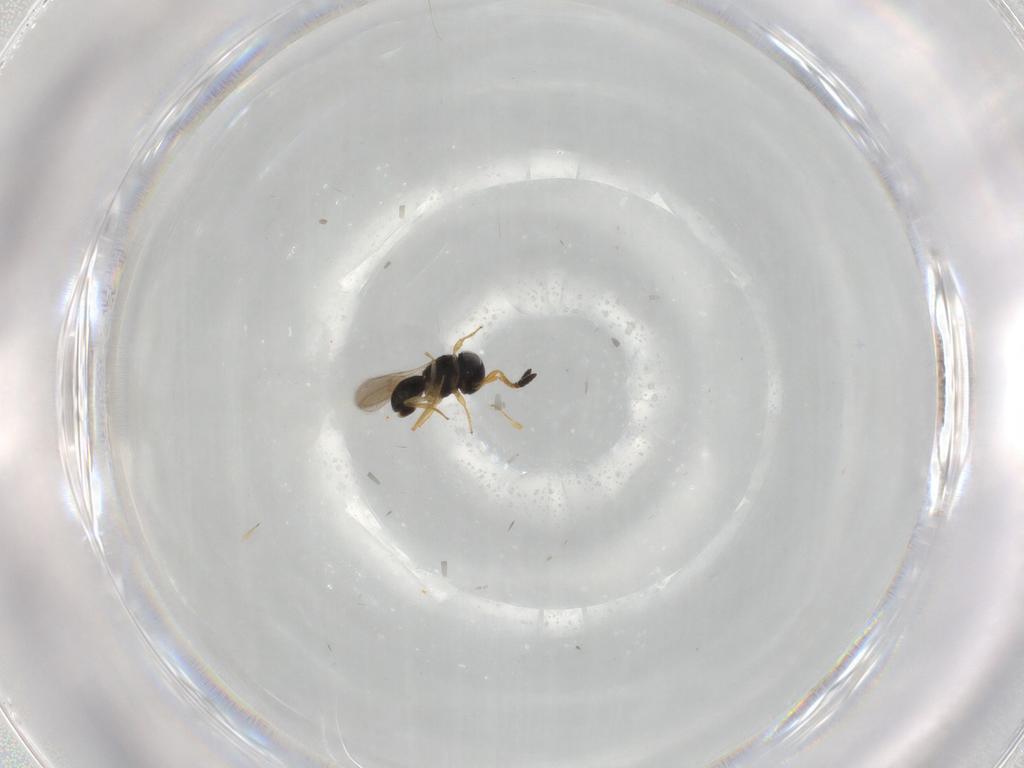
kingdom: Animalia
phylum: Arthropoda
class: Insecta
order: Hymenoptera
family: Scelionidae
